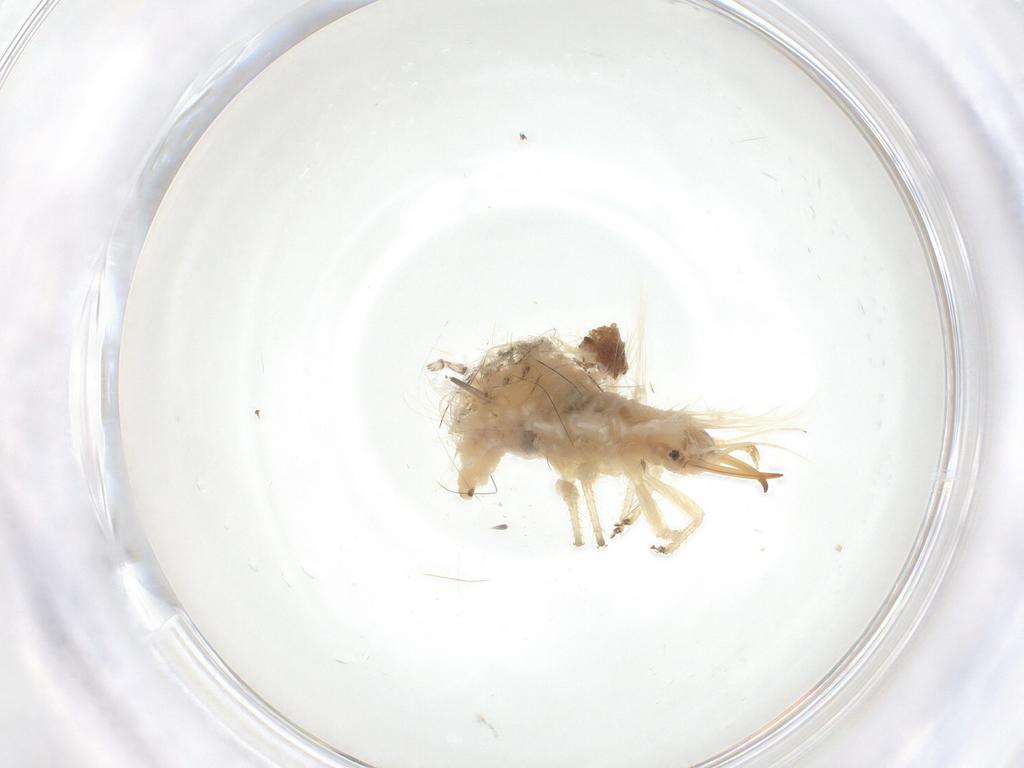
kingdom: Animalia
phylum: Arthropoda
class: Insecta
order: Neuroptera
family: Chrysopidae
